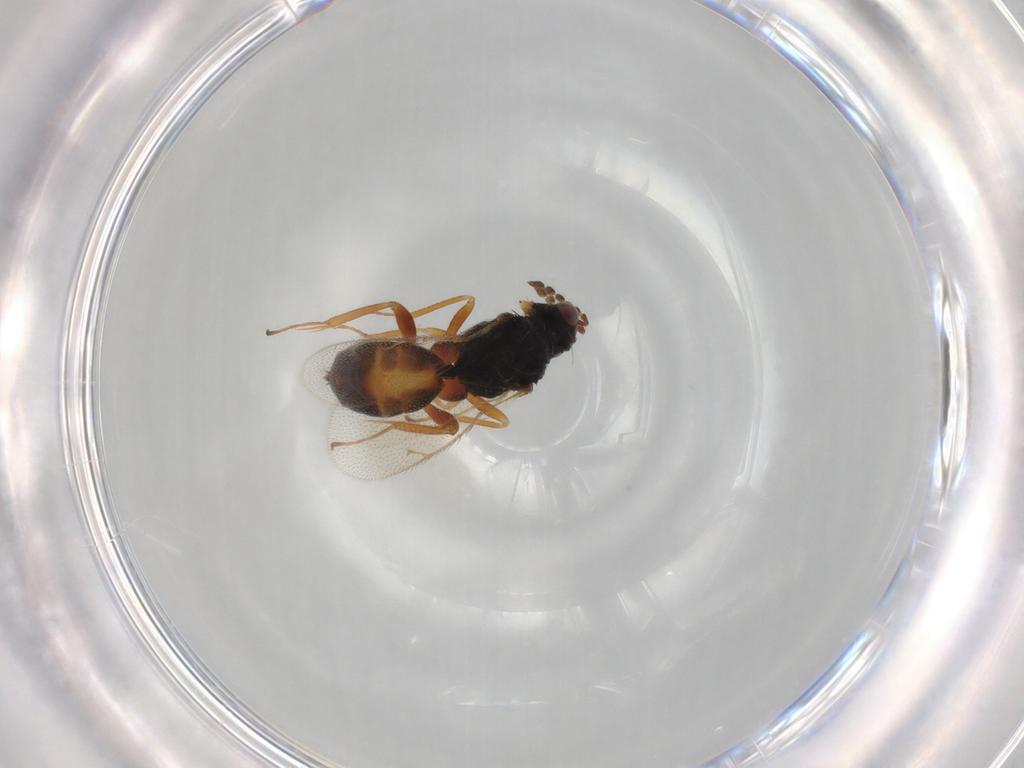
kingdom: Animalia
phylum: Arthropoda
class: Insecta
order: Hymenoptera
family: Eulophidae
